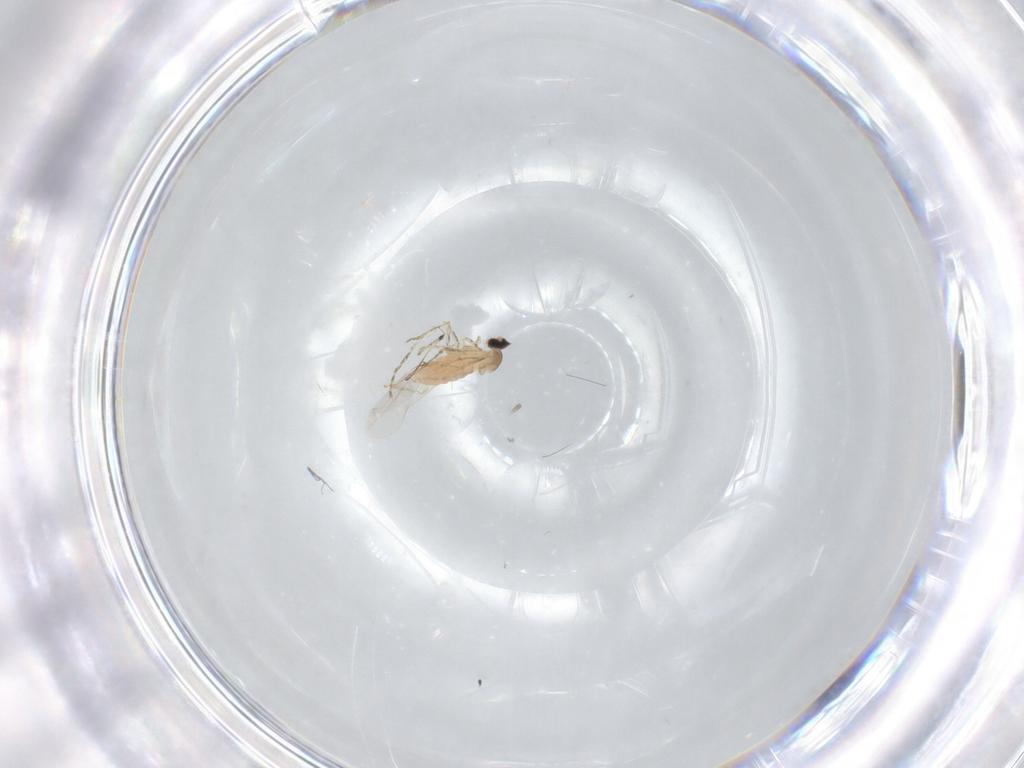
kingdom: Animalia
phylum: Arthropoda
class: Insecta
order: Diptera
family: Cecidomyiidae
